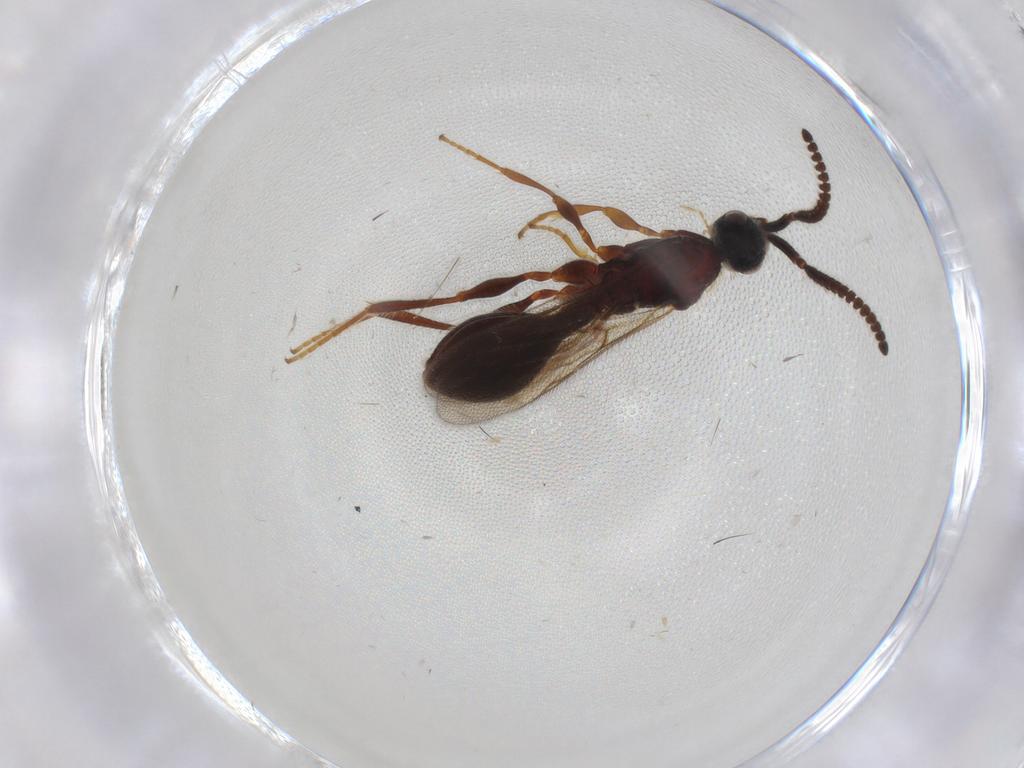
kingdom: Animalia
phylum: Arthropoda
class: Insecta
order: Hymenoptera
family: Diapriidae
